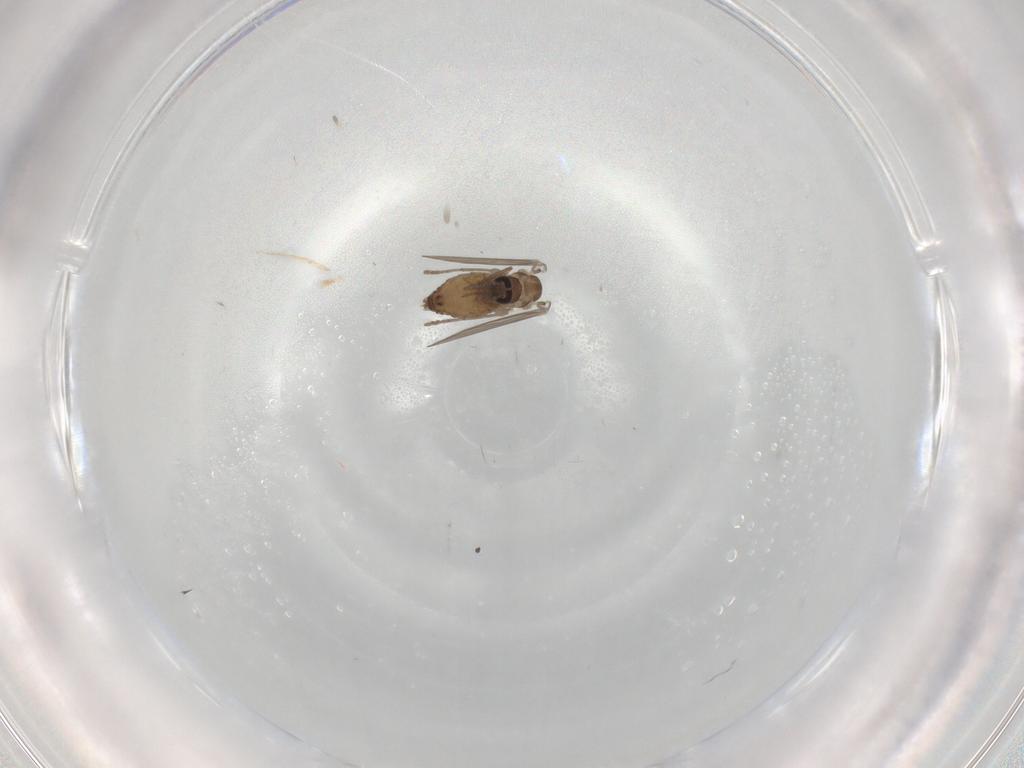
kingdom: Animalia
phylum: Arthropoda
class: Insecta
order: Diptera
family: Psychodidae
